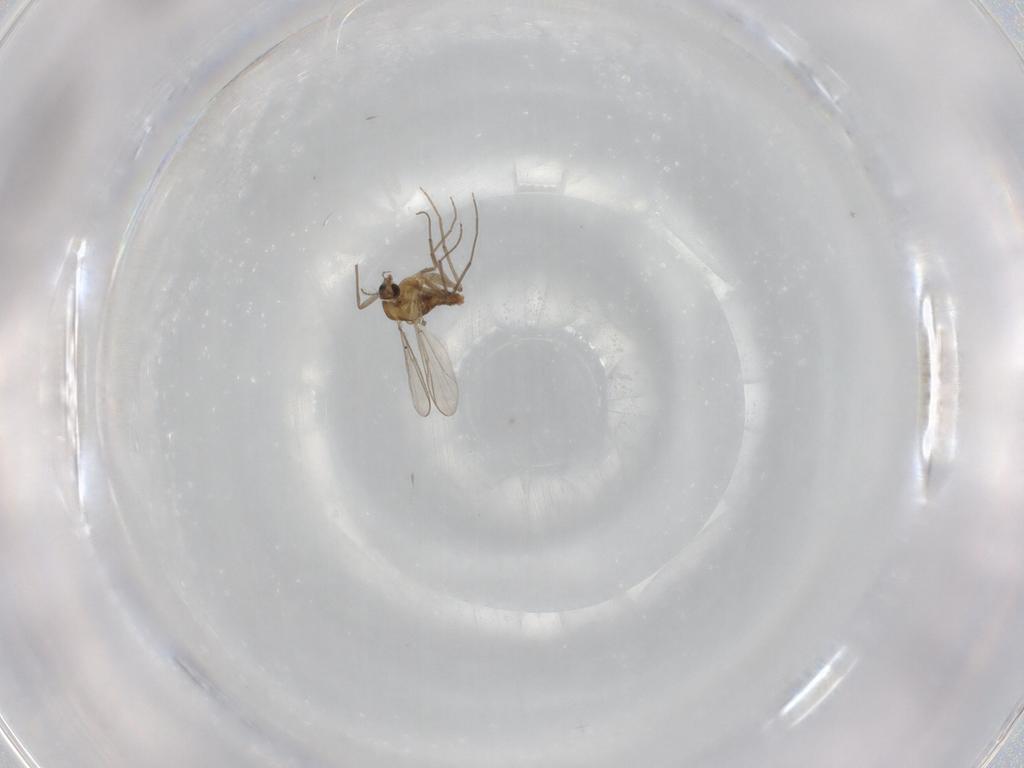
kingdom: Animalia
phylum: Arthropoda
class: Insecta
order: Diptera
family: Chironomidae
